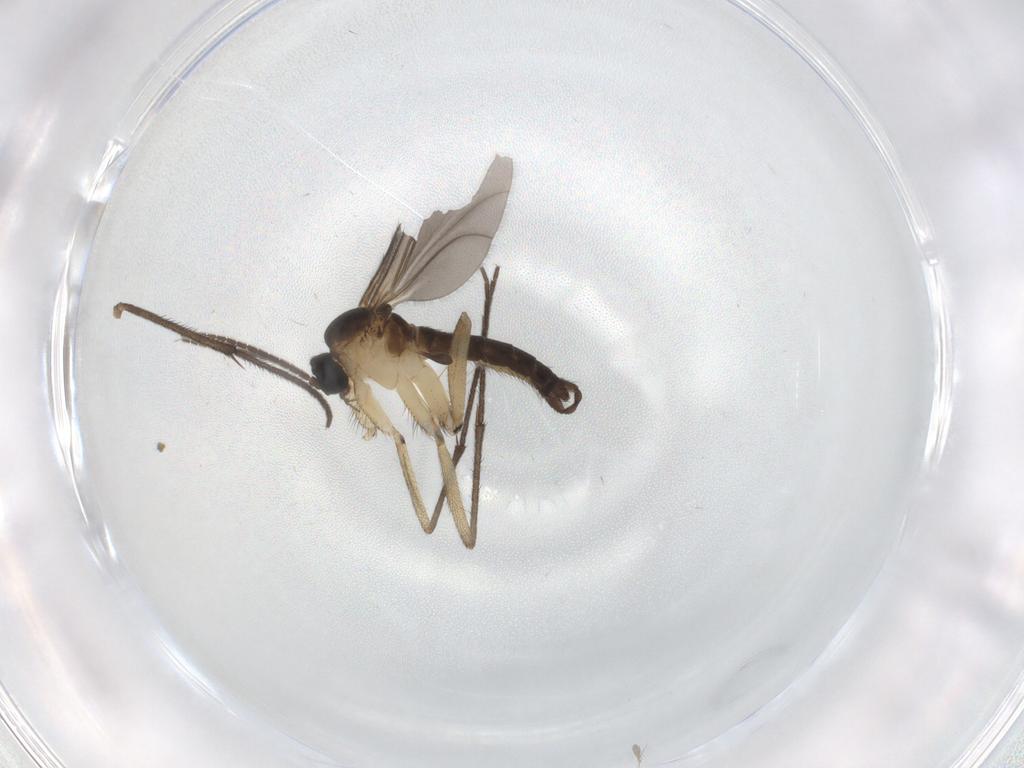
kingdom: Animalia
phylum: Arthropoda
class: Insecta
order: Diptera
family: Sciaridae
